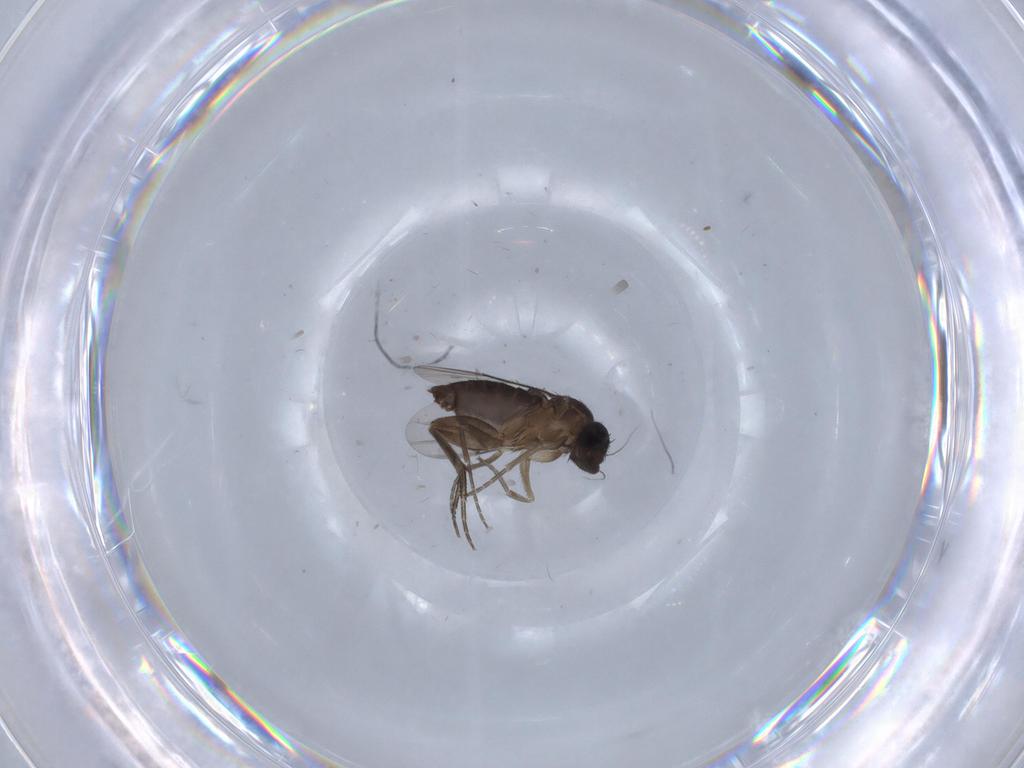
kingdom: Animalia
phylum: Arthropoda
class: Insecta
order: Diptera
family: Phoridae
